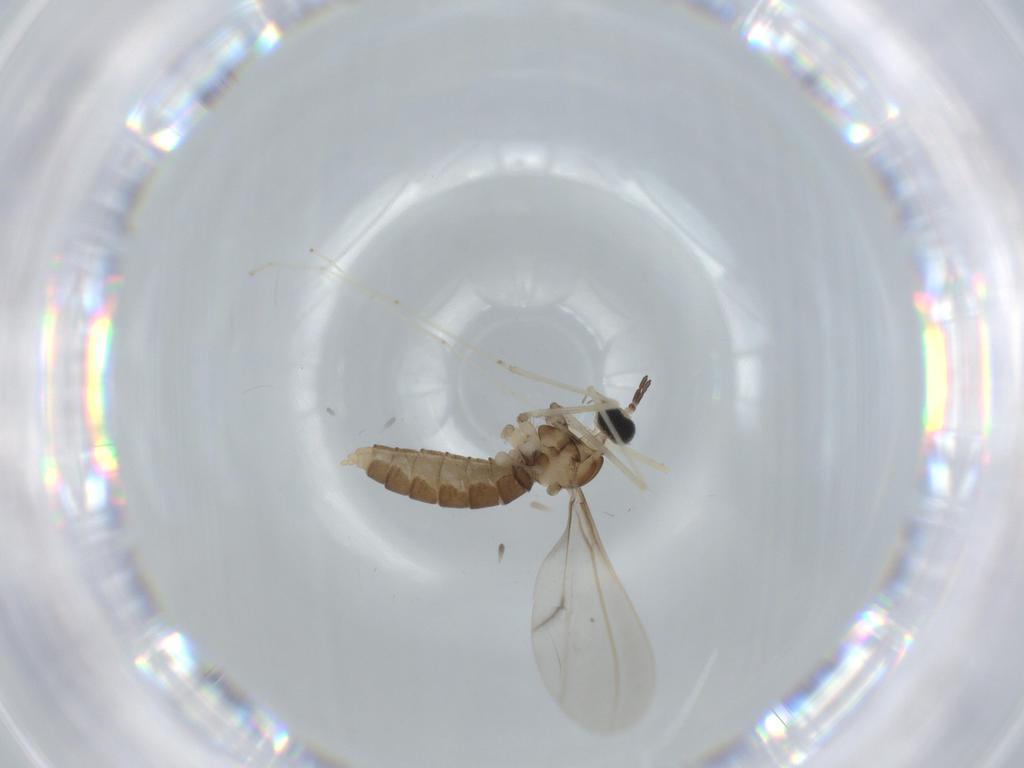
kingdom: Animalia
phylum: Arthropoda
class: Insecta
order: Diptera
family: Cecidomyiidae
